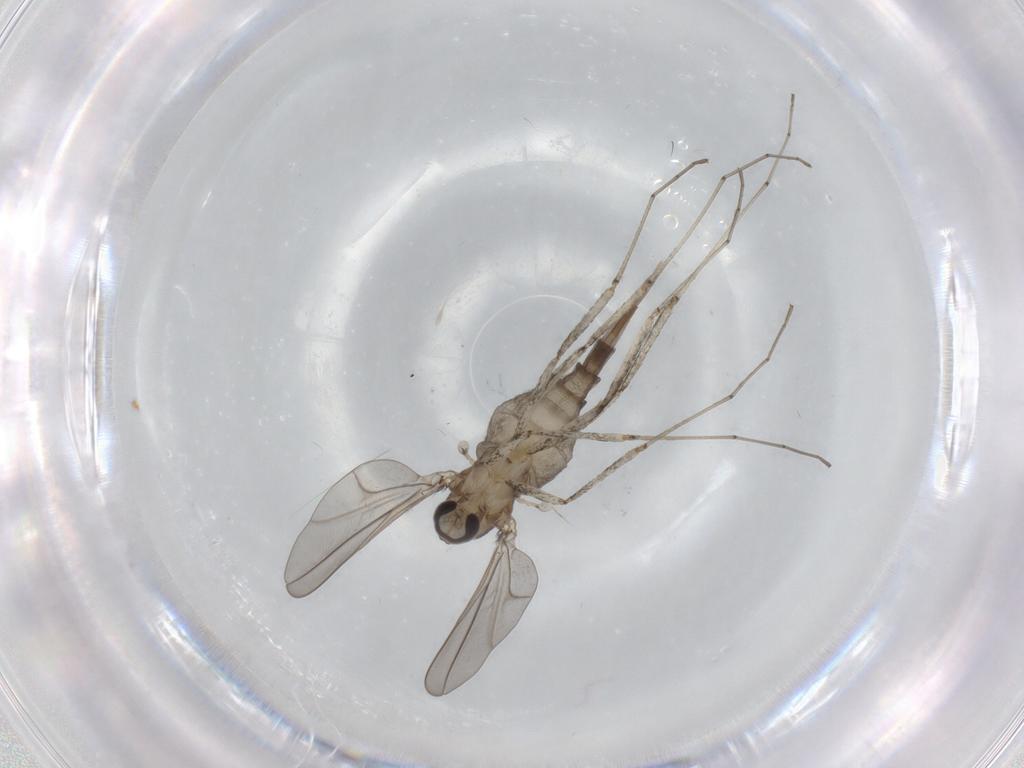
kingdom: Animalia
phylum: Arthropoda
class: Insecta
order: Diptera
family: Cecidomyiidae
